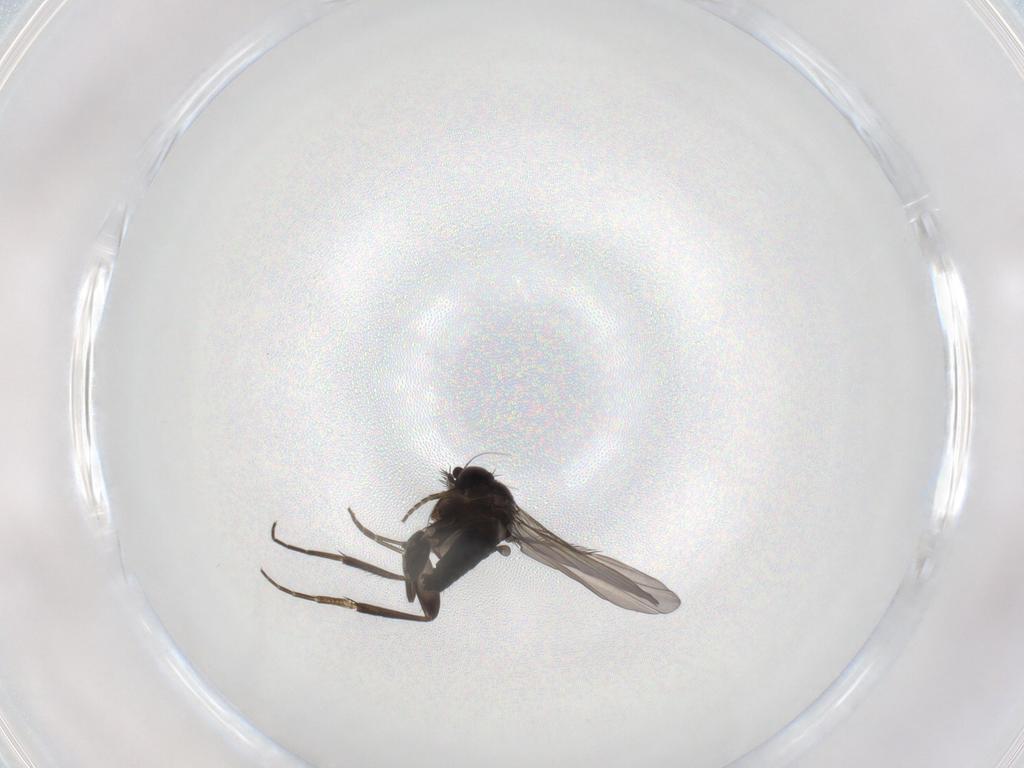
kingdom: Animalia
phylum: Arthropoda
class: Insecta
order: Diptera
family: Phoridae
